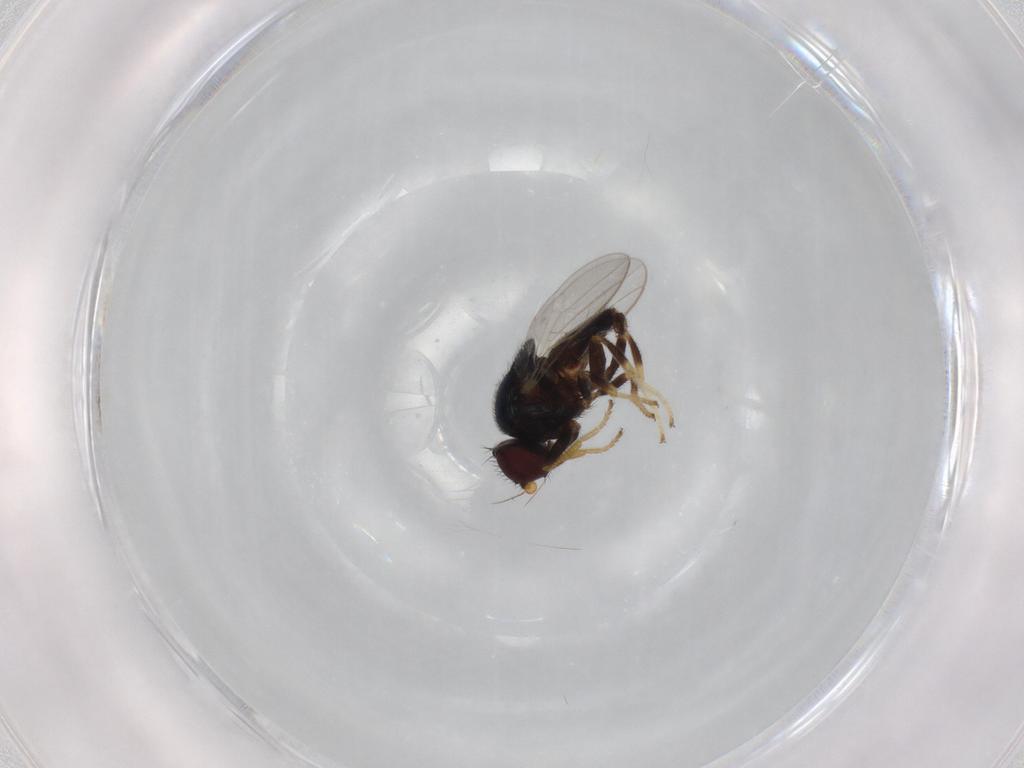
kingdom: Animalia
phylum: Arthropoda
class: Insecta
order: Diptera
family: Chloropidae
